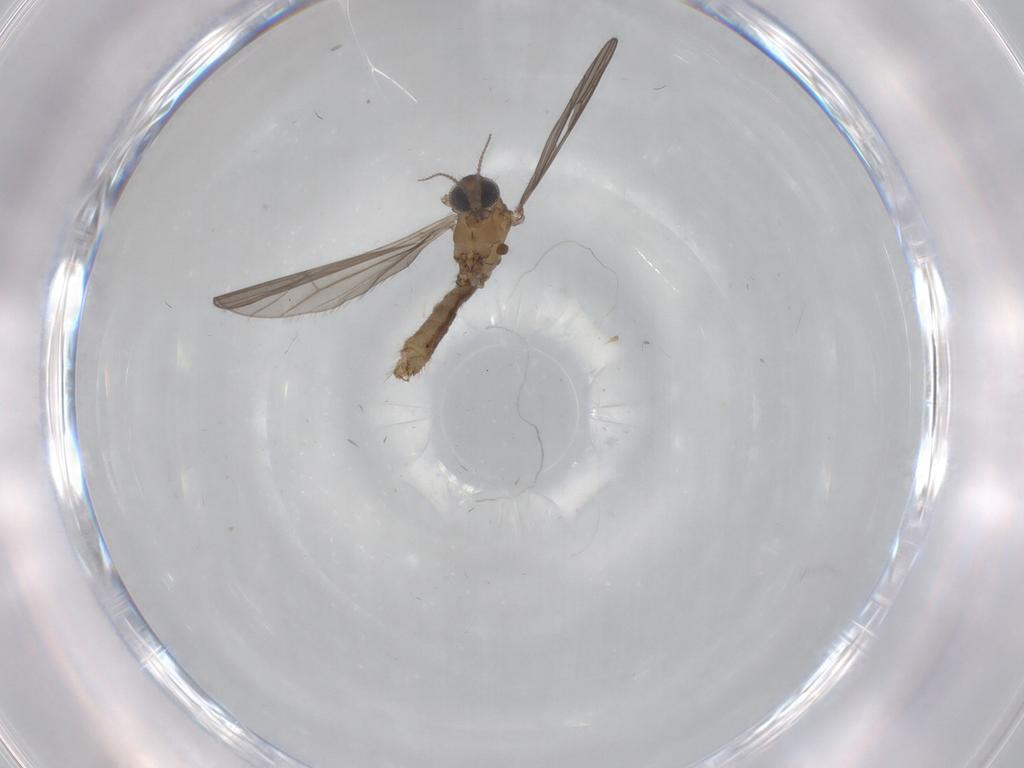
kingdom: Animalia
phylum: Arthropoda
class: Insecta
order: Diptera
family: Limoniidae
